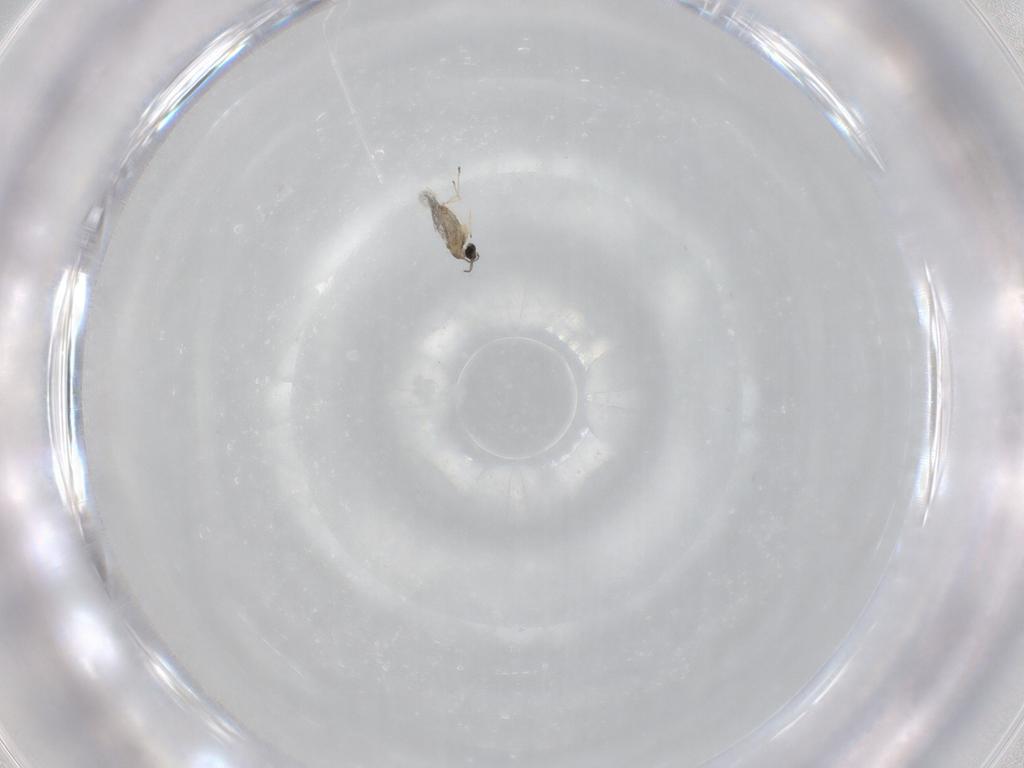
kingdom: Animalia
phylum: Arthropoda
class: Insecta
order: Diptera
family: Cecidomyiidae
